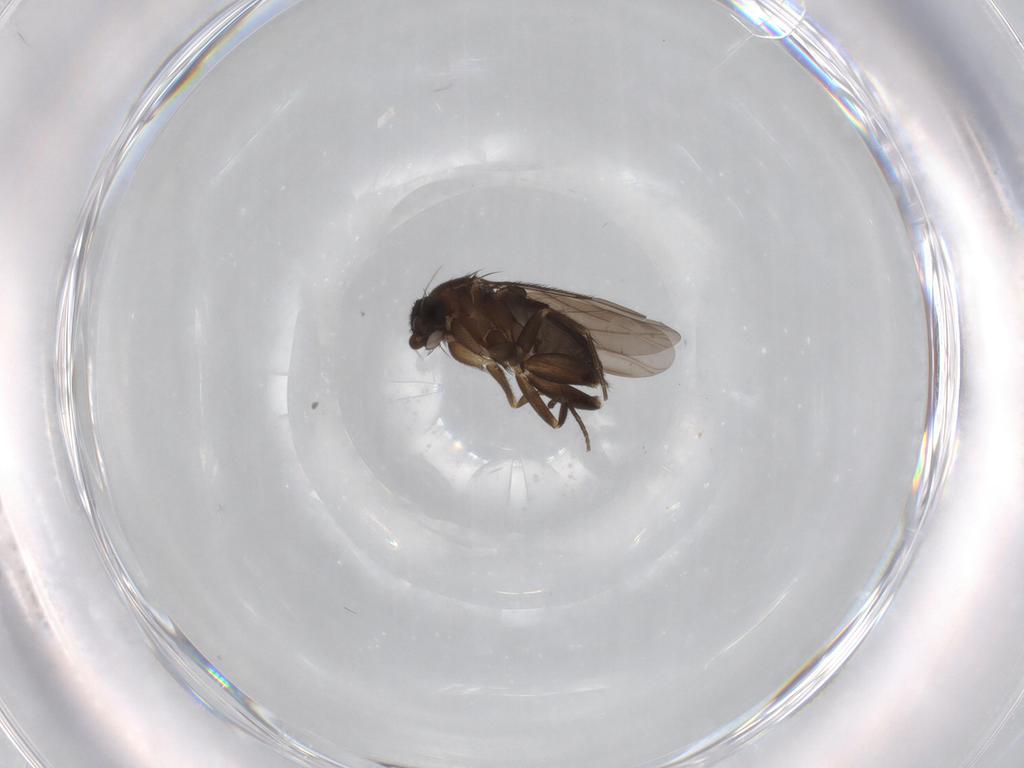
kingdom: Animalia
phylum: Arthropoda
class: Insecta
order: Diptera
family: Phoridae
